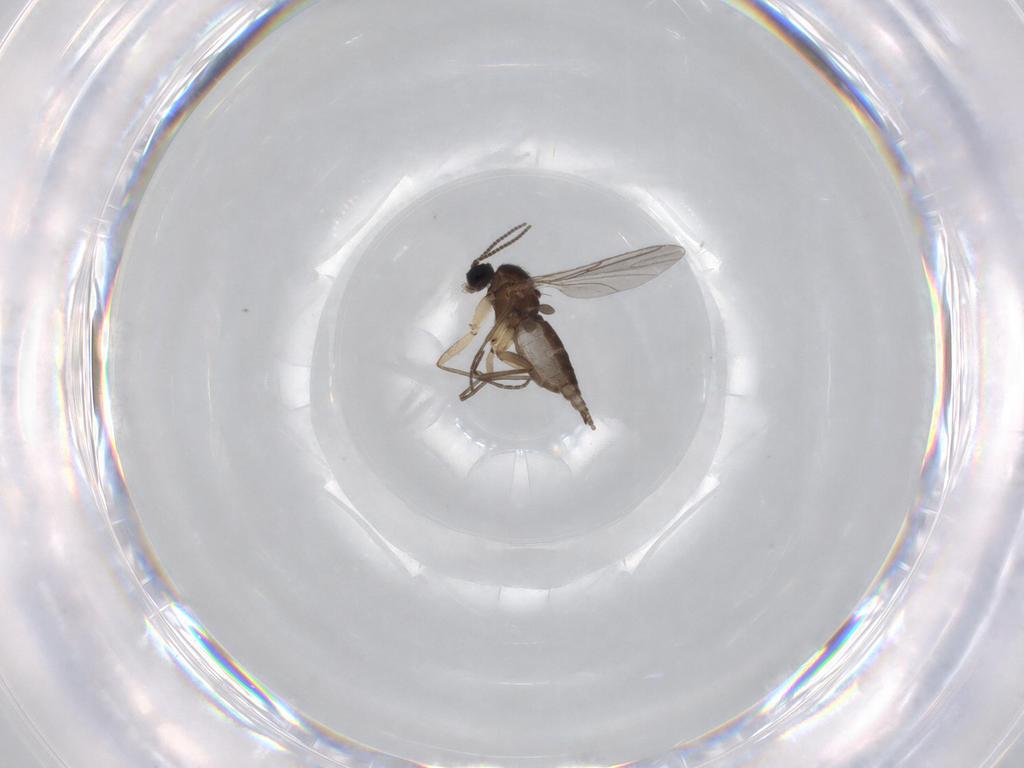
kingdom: Animalia
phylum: Arthropoda
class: Insecta
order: Diptera
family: Sciaridae
